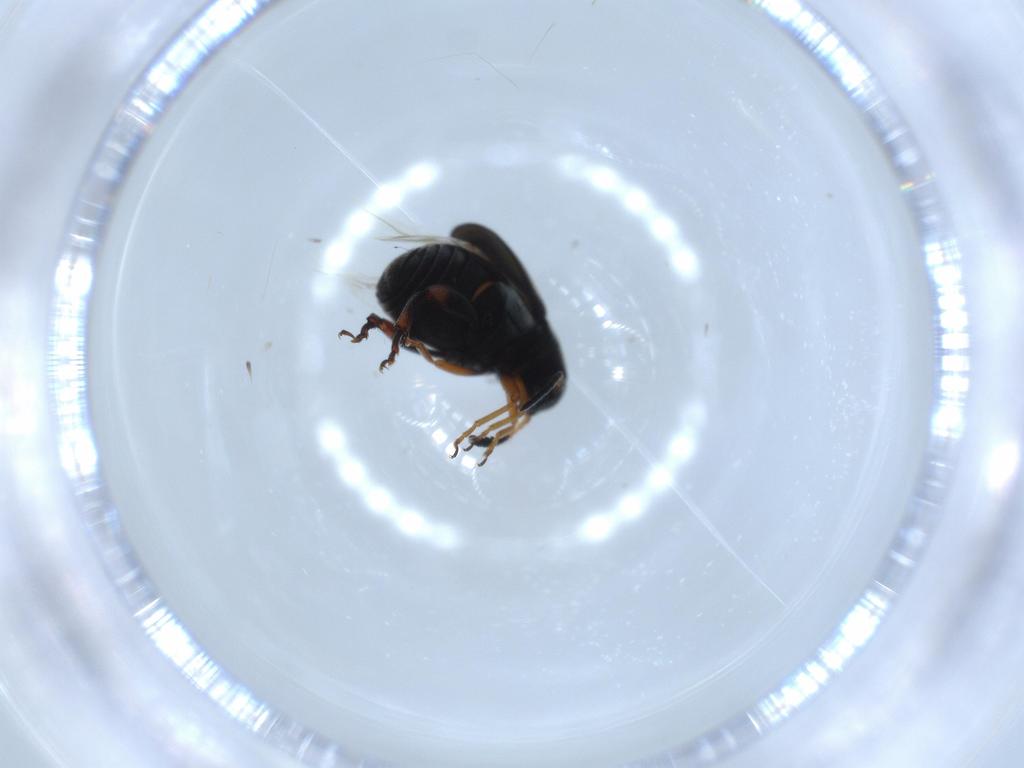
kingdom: Animalia
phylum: Arthropoda
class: Insecta
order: Coleoptera
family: Chrysomelidae
